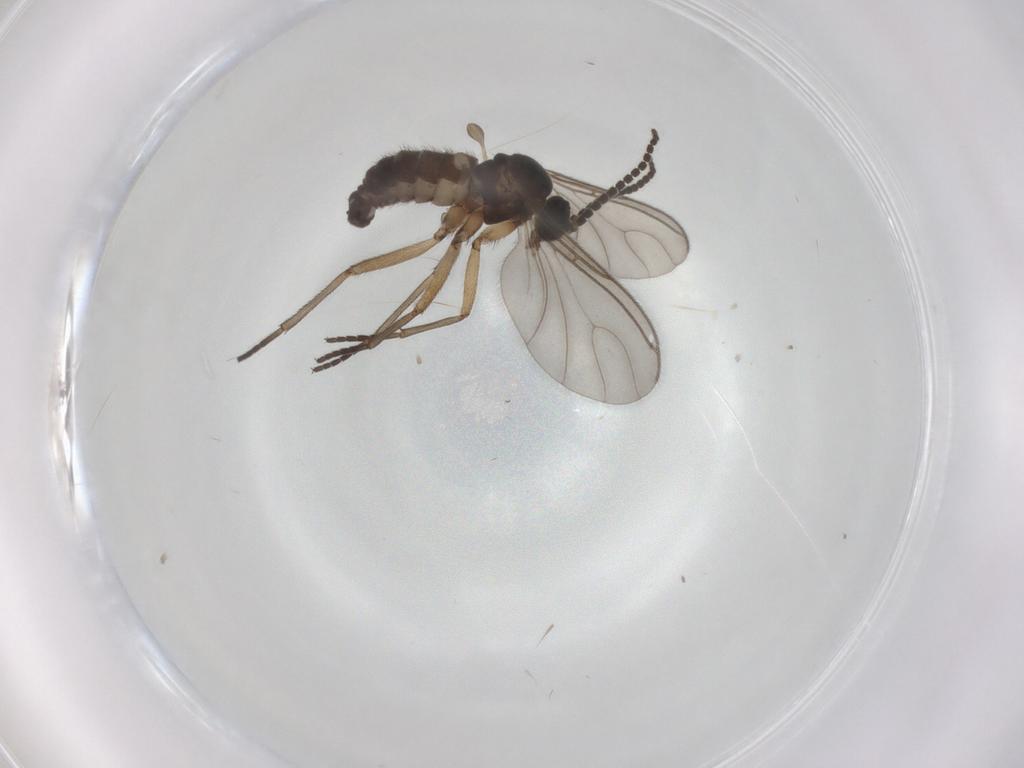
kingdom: Animalia
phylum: Arthropoda
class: Insecta
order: Diptera
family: Sciaridae
